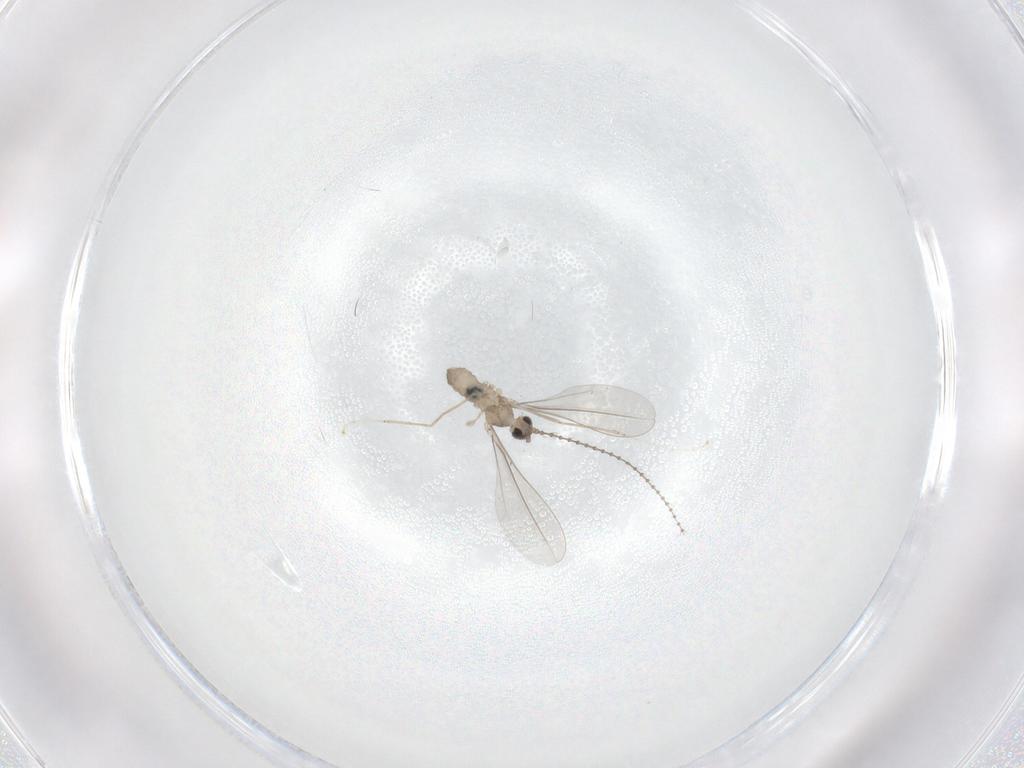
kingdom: Animalia
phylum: Arthropoda
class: Insecta
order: Diptera
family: Cecidomyiidae
